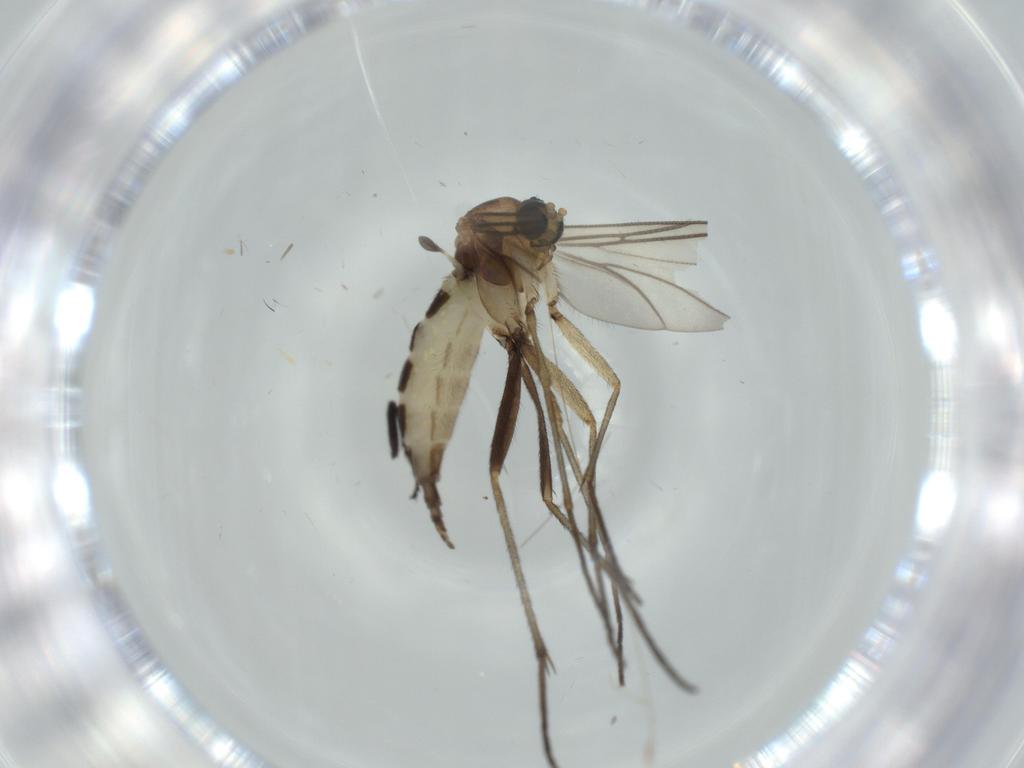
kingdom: Animalia
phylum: Arthropoda
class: Insecta
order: Diptera
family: Sciaridae
